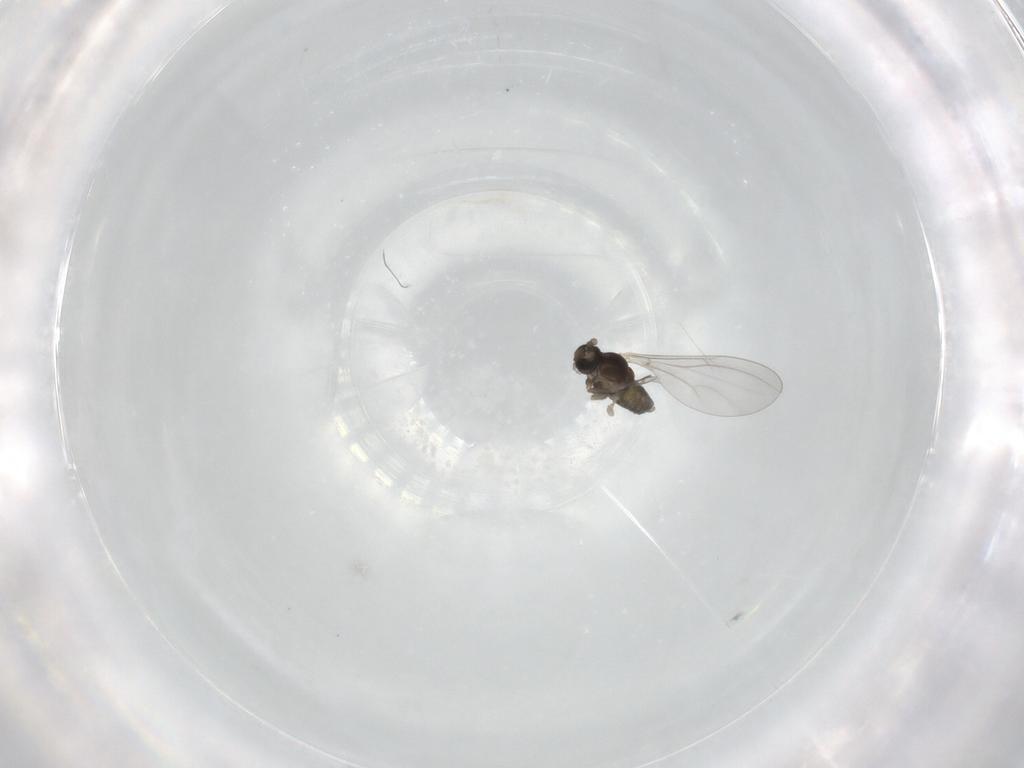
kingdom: Animalia
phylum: Arthropoda
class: Insecta
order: Diptera
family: Cecidomyiidae
